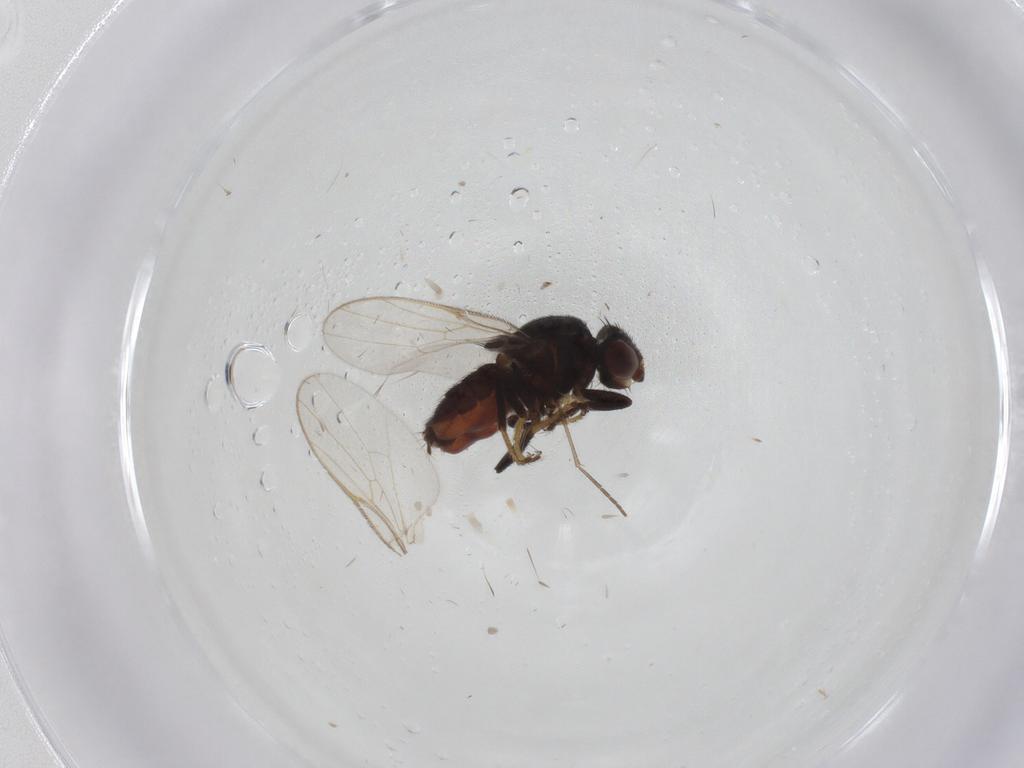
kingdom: Animalia
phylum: Arthropoda
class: Insecta
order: Diptera
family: Chloropidae
